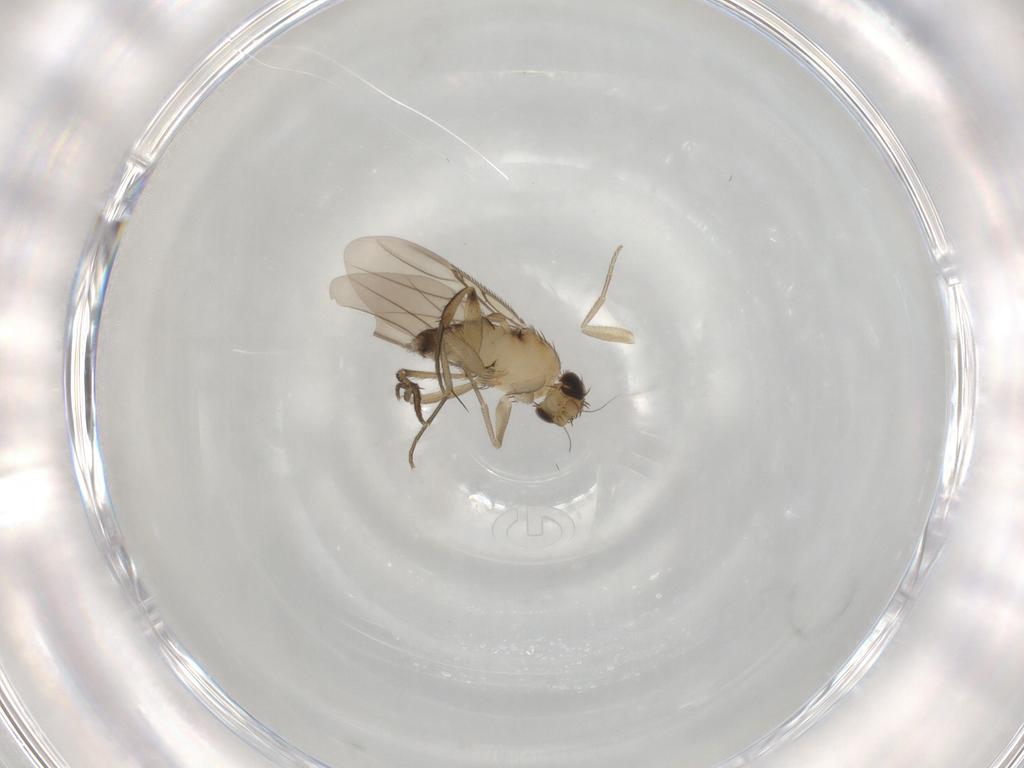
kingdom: Animalia
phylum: Arthropoda
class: Insecta
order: Diptera
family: Phoridae
